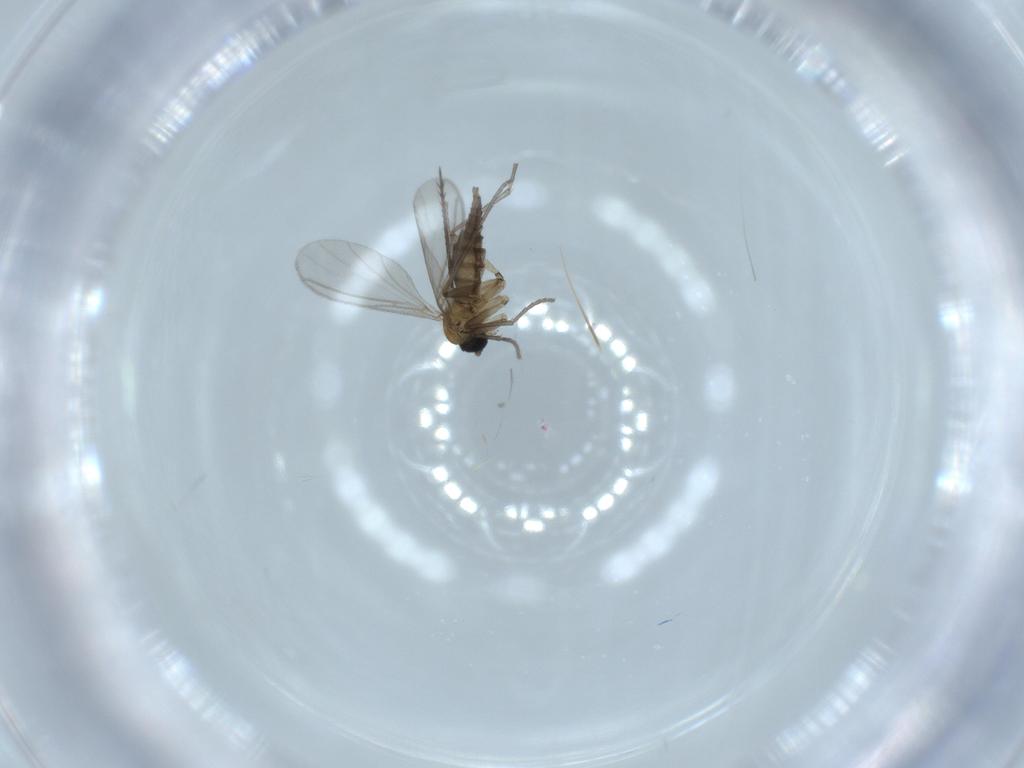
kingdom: Animalia
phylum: Arthropoda
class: Insecta
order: Diptera
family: Sciaridae
